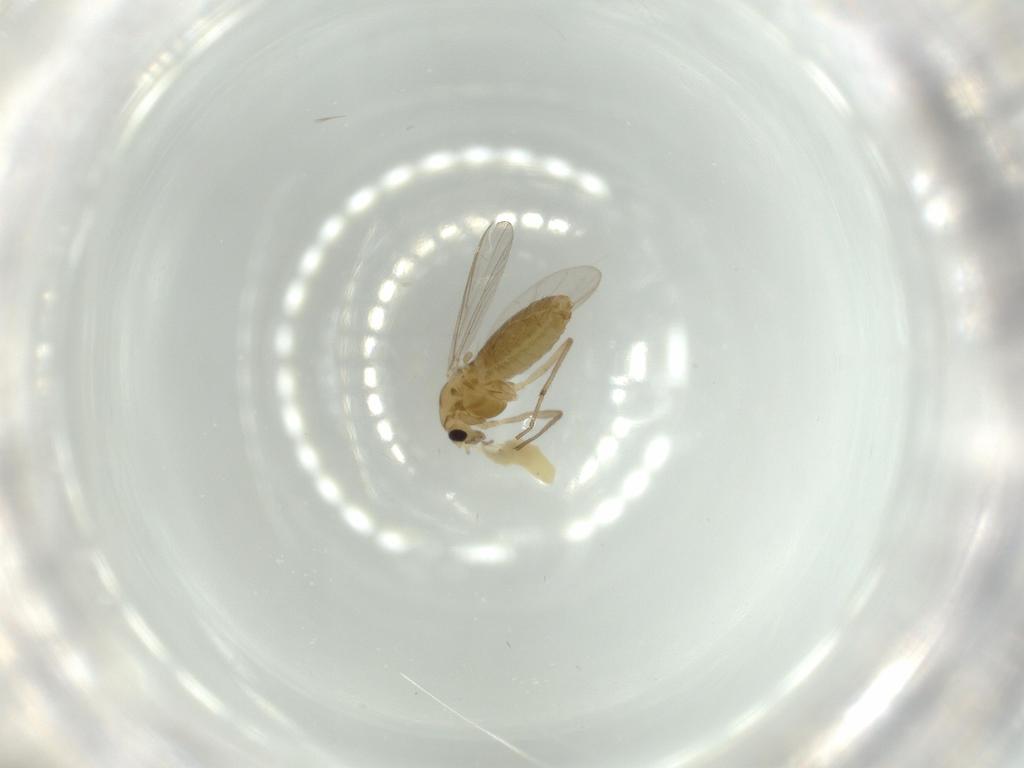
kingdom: Animalia
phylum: Arthropoda
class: Insecta
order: Diptera
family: Chironomidae
